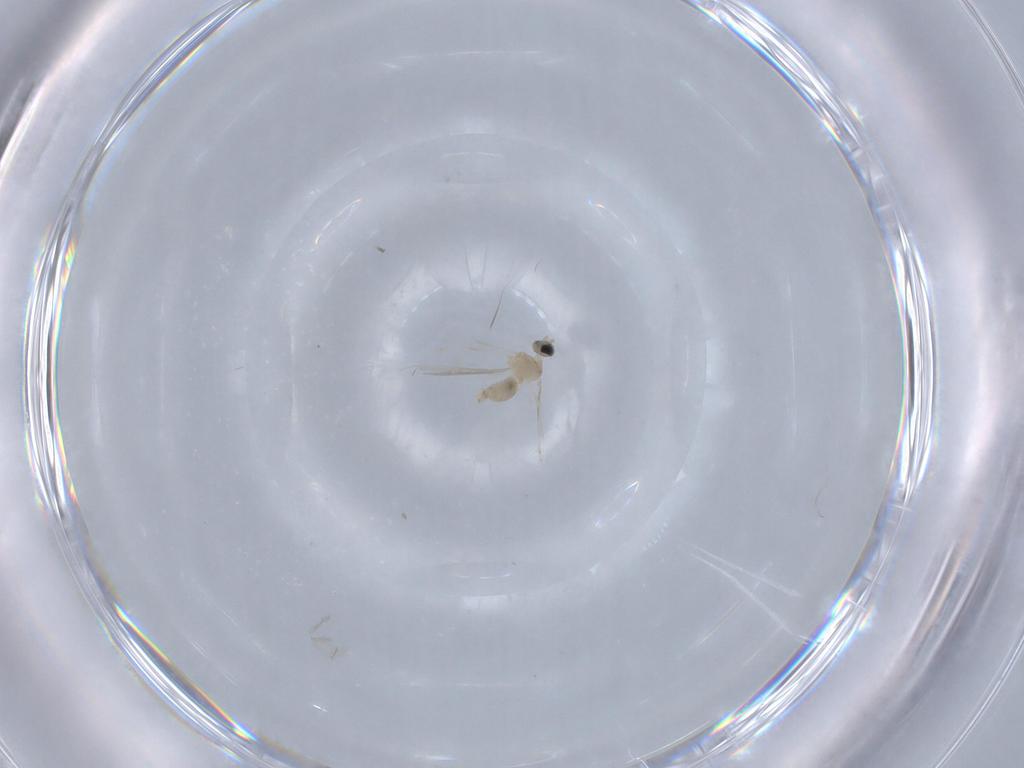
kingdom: Animalia
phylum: Arthropoda
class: Insecta
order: Diptera
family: Cecidomyiidae
